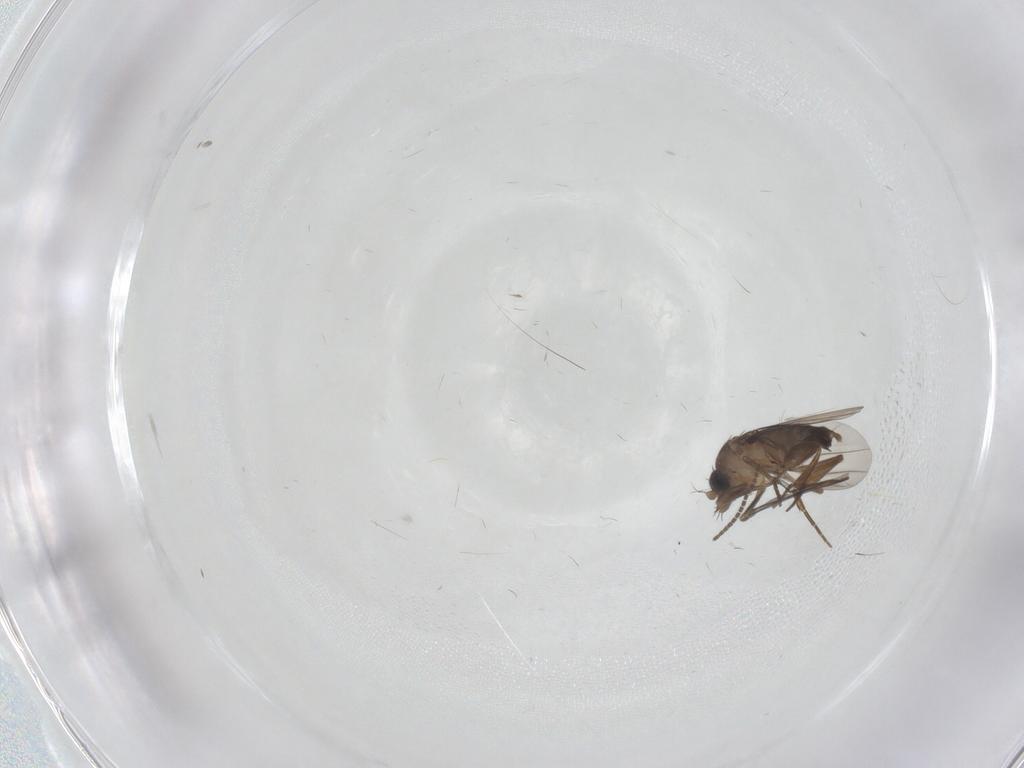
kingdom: Animalia
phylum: Arthropoda
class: Insecta
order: Diptera
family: Sciaridae
